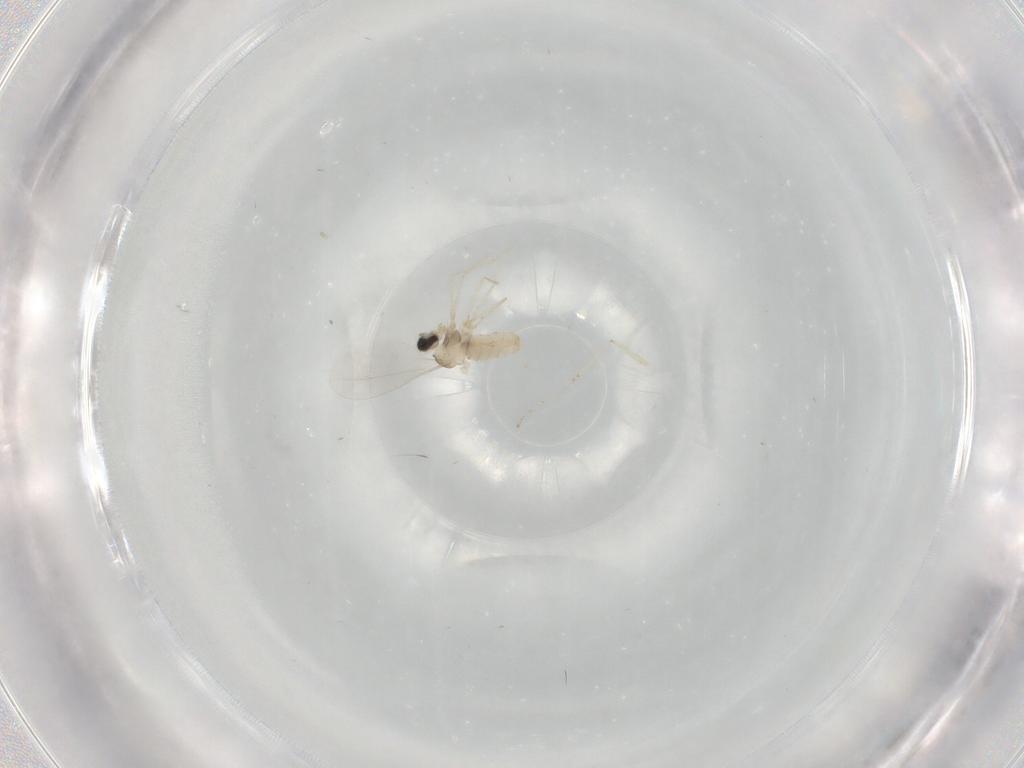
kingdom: Animalia
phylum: Arthropoda
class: Insecta
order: Diptera
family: Cecidomyiidae
